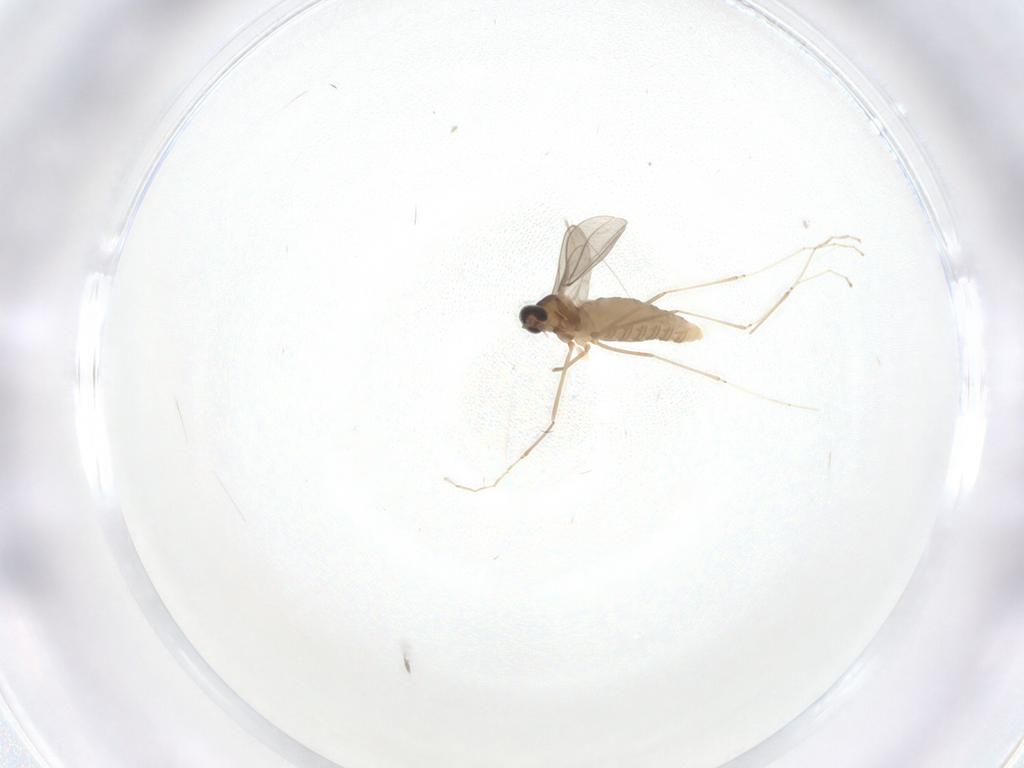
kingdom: Animalia
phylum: Arthropoda
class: Insecta
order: Diptera
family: Cecidomyiidae
